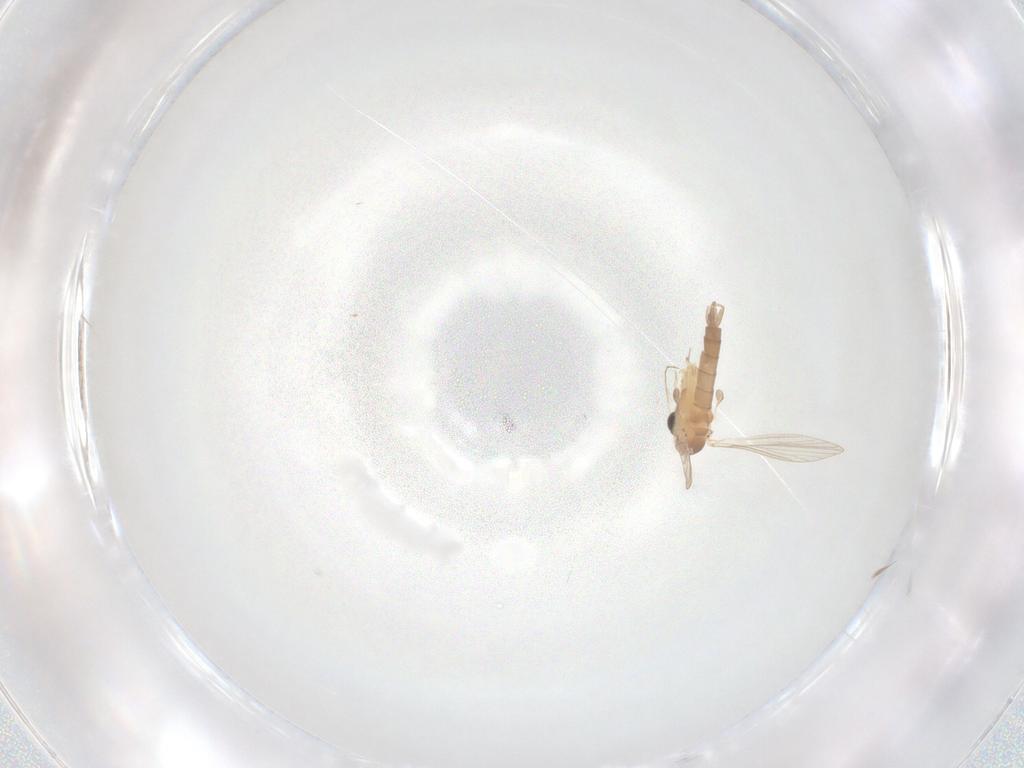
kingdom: Animalia
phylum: Arthropoda
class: Insecta
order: Diptera
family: Psychodidae
